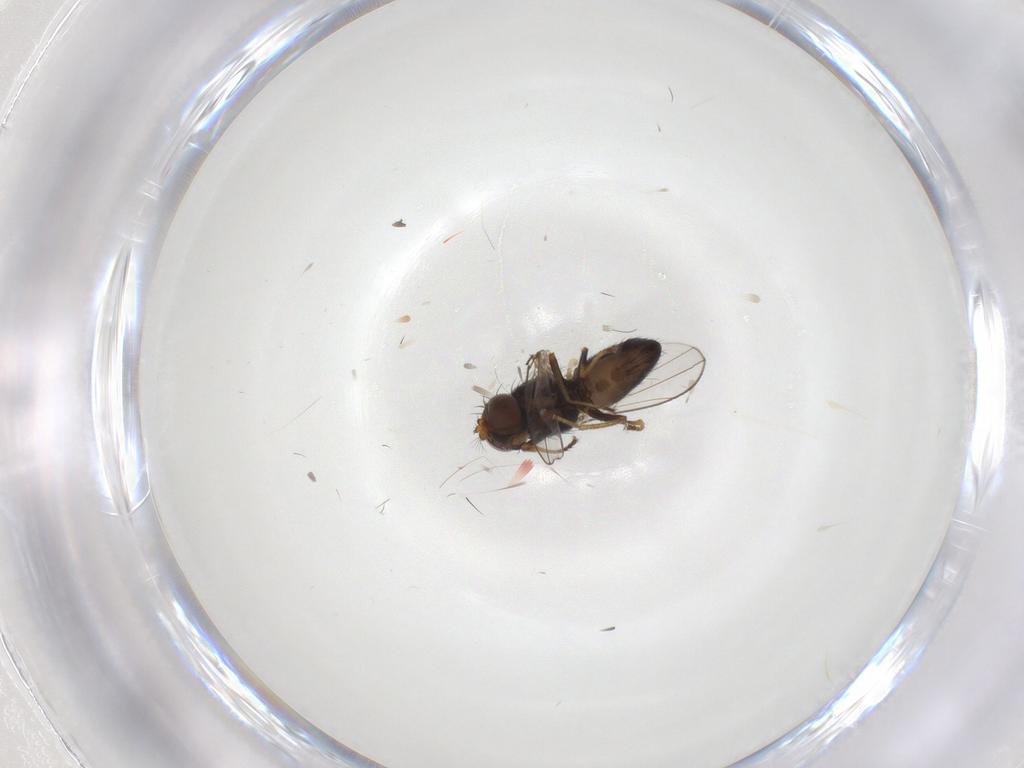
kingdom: Animalia
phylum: Arthropoda
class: Insecta
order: Diptera
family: Ephydridae
